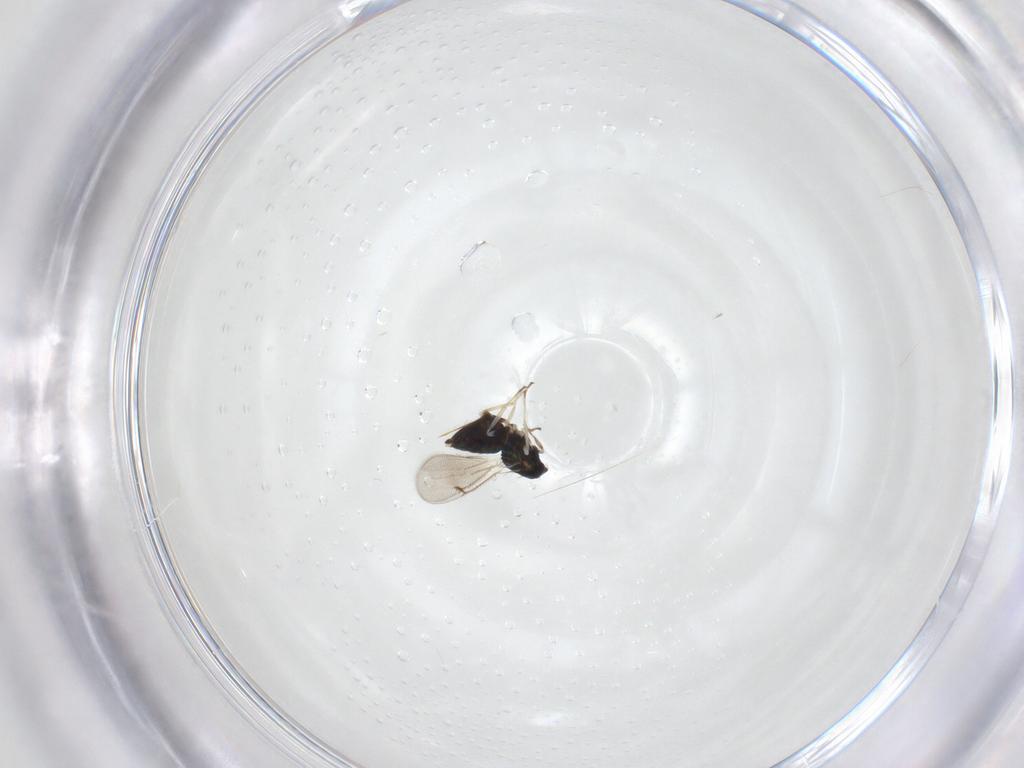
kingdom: Animalia
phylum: Arthropoda
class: Insecta
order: Hymenoptera
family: Eulophidae
